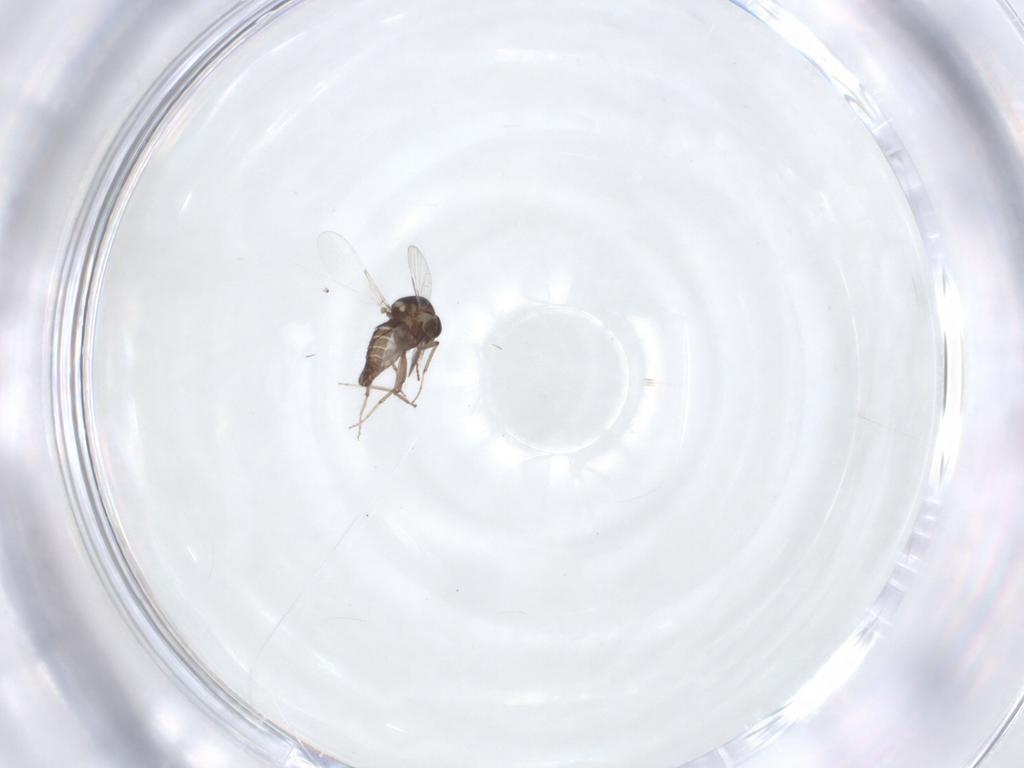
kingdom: Animalia
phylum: Arthropoda
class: Insecta
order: Diptera
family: Ceratopogonidae
